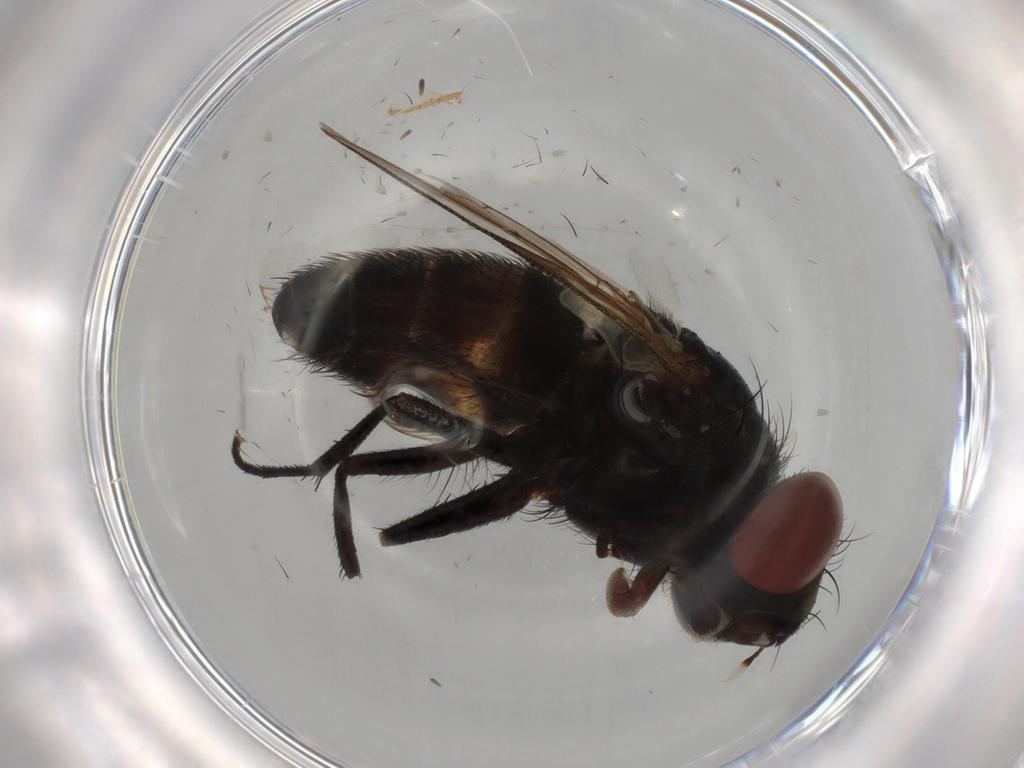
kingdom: Animalia
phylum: Arthropoda
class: Insecta
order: Diptera
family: Sarcophagidae
